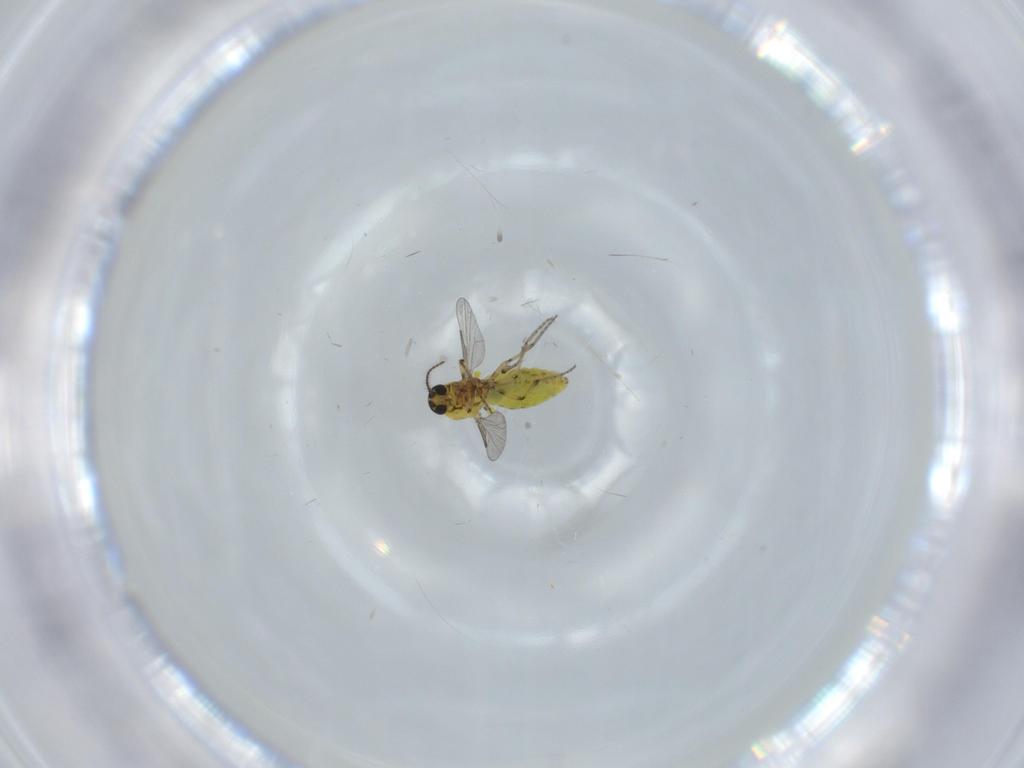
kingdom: Animalia
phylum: Arthropoda
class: Insecta
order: Diptera
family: Ceratopogonidae
